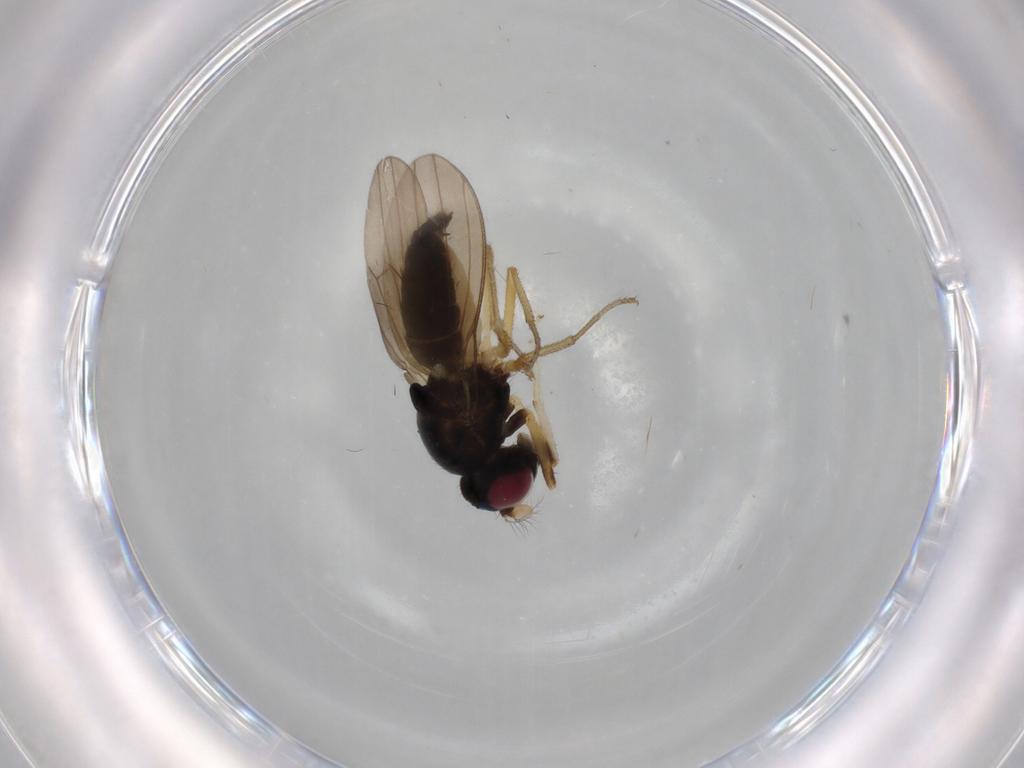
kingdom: Animalia
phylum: Arthropoda
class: Insecta
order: Diptera
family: Lauxaniidae
